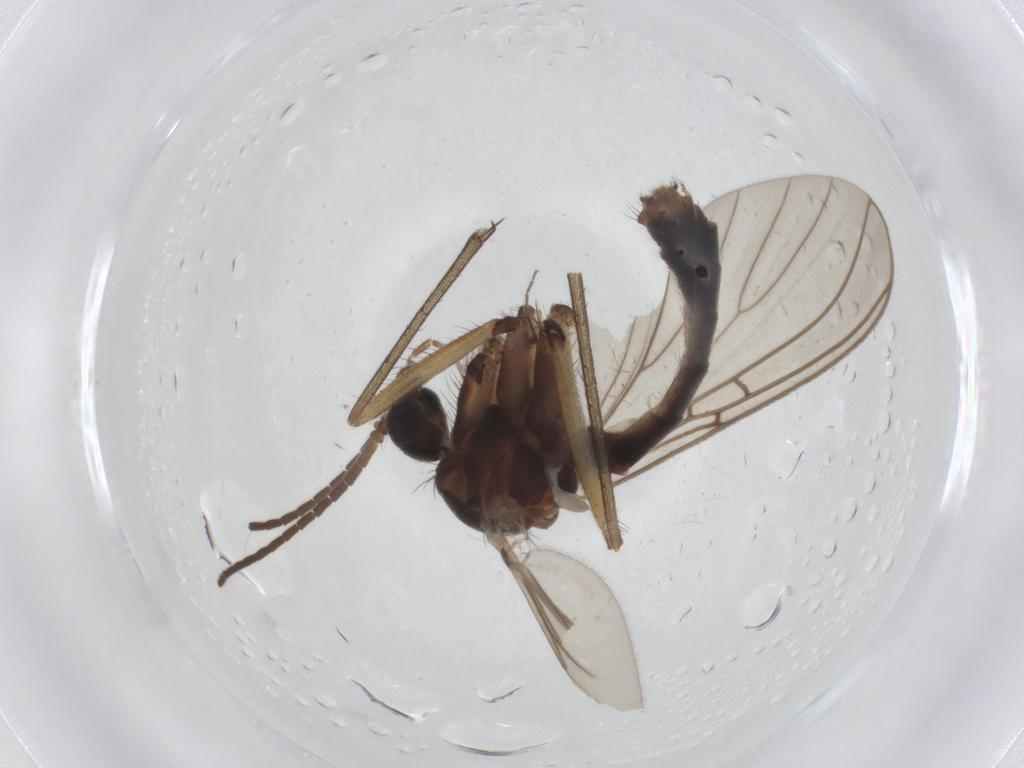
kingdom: Animalia
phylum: Arthropoda
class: Insecta
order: Diptera
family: Mycetophilidae
